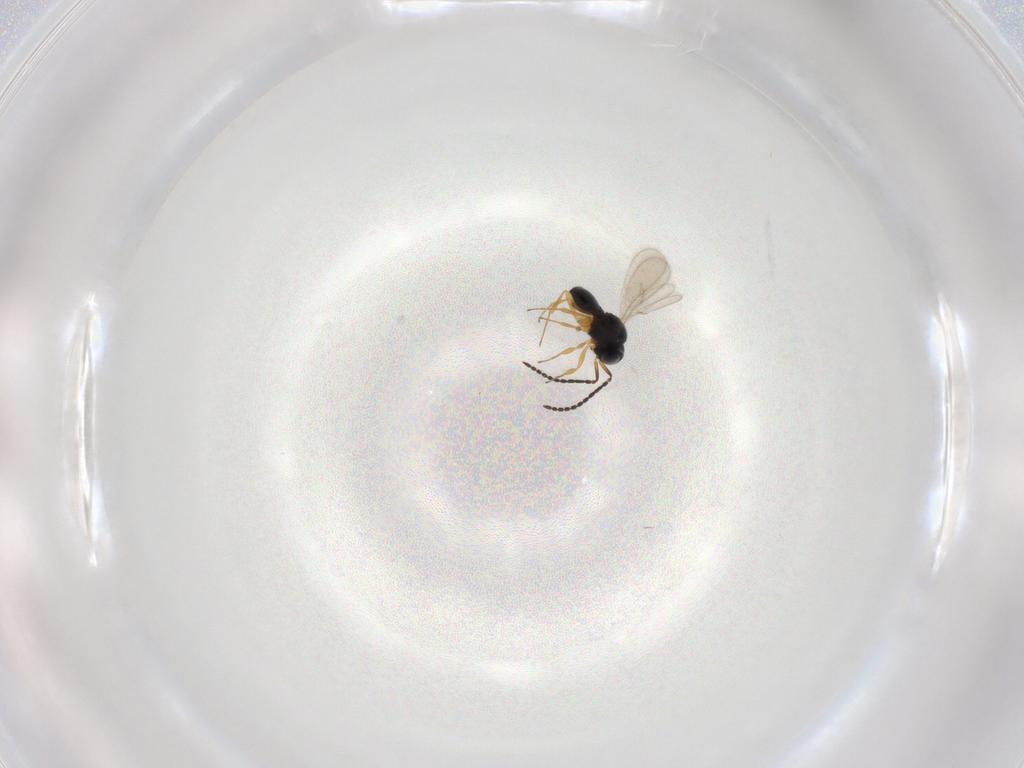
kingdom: Animalia
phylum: Arthropoda
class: Insecta
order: Hymenoptera
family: Scelionidae
